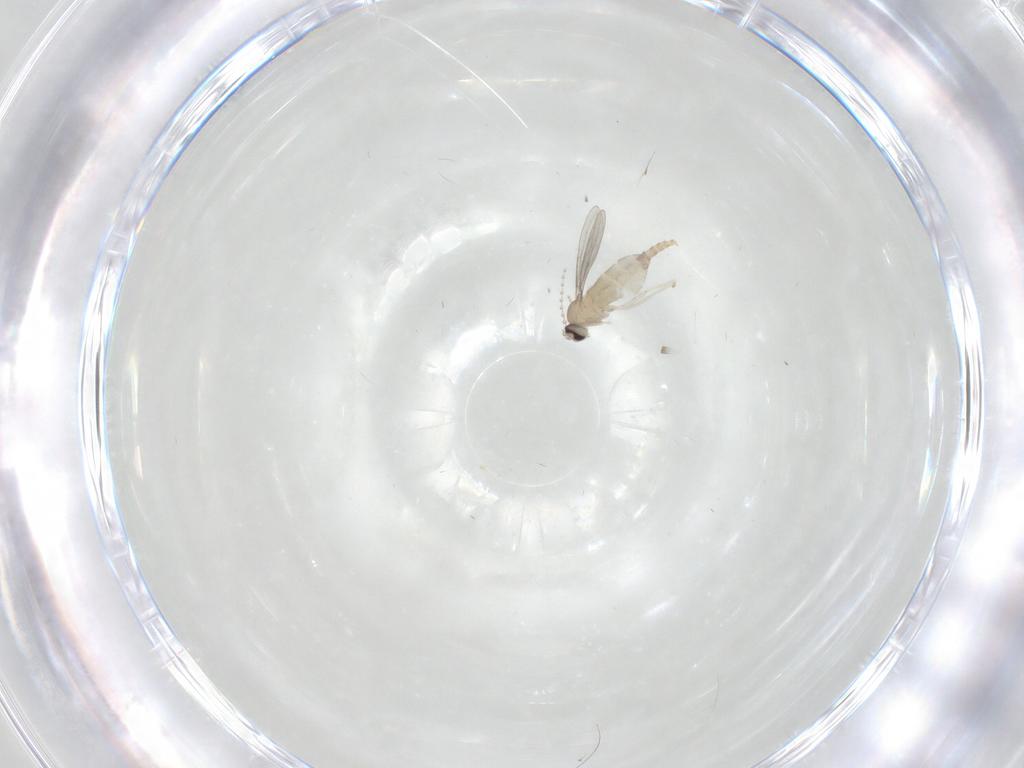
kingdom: Animalia
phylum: Arthropoda
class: Insecta
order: Diptera
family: Cecidomyiidae
